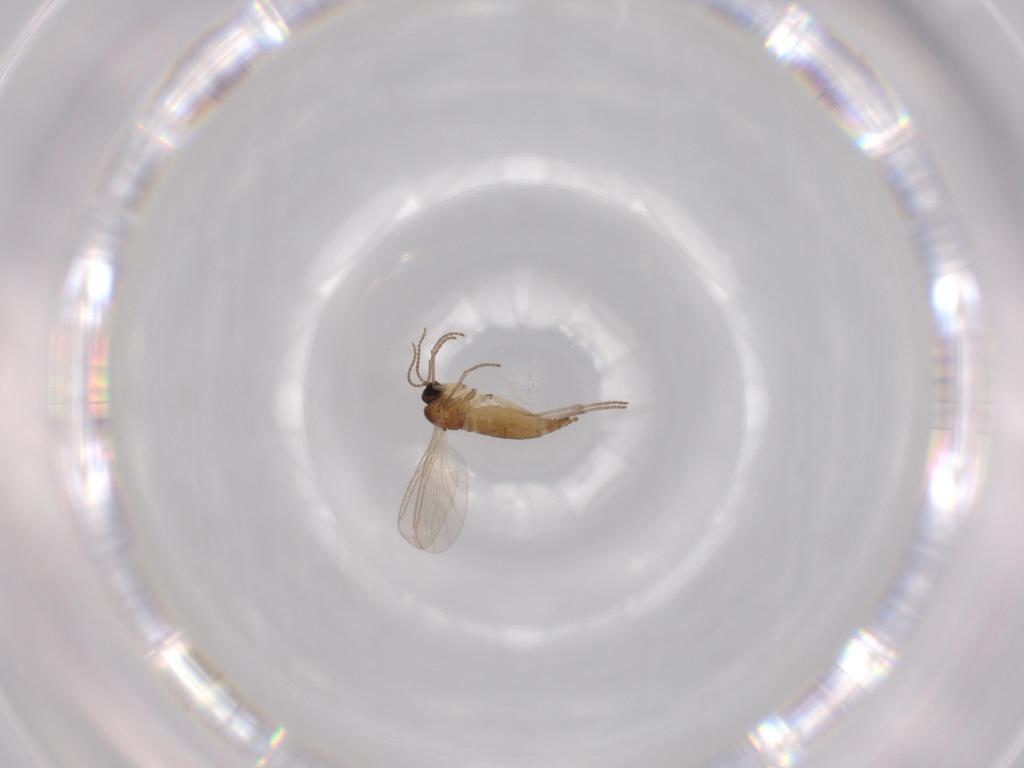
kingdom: Animalia
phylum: Arthropoda
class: Insecta
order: Diptera
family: Sciaridae
